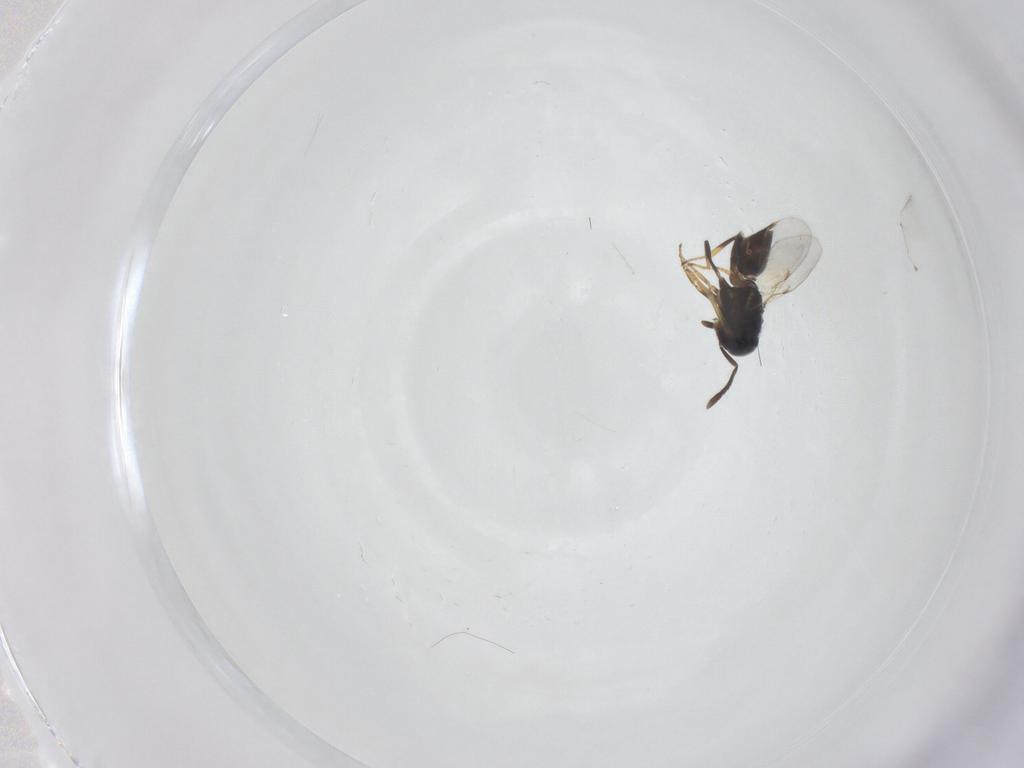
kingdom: Animalia
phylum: Arthropoda
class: Insecta
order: Hymenoptera
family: Encyrtidae
